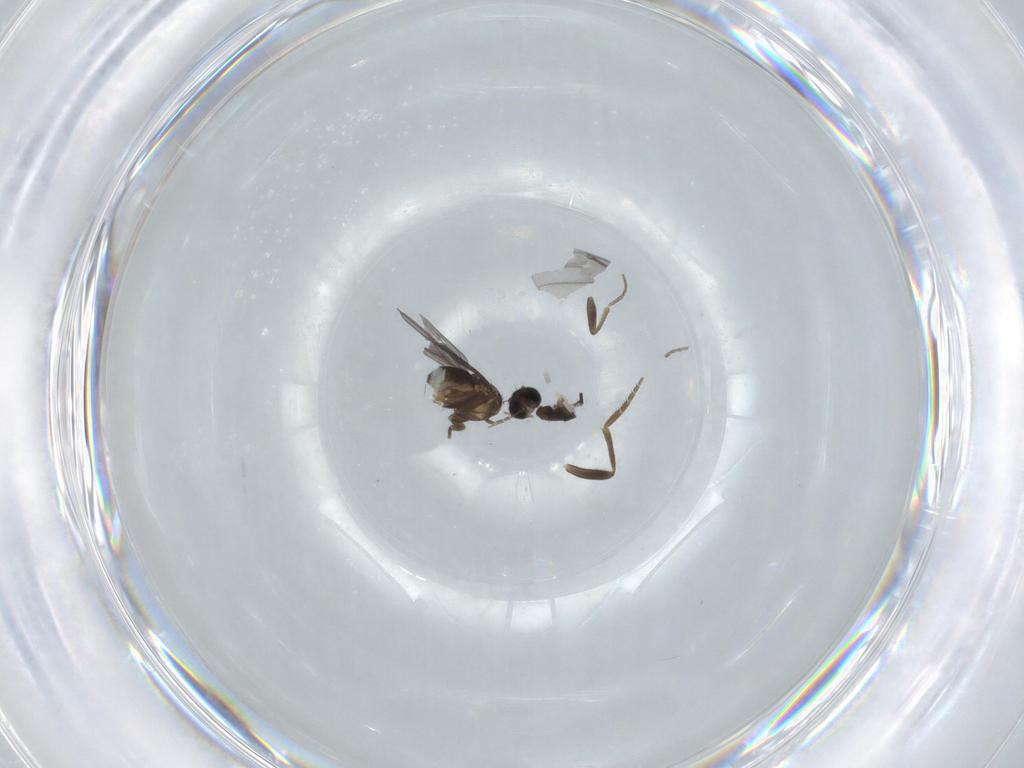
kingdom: Animalia
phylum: Arthropoda
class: Insecta
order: Diptera
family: Phoridae
